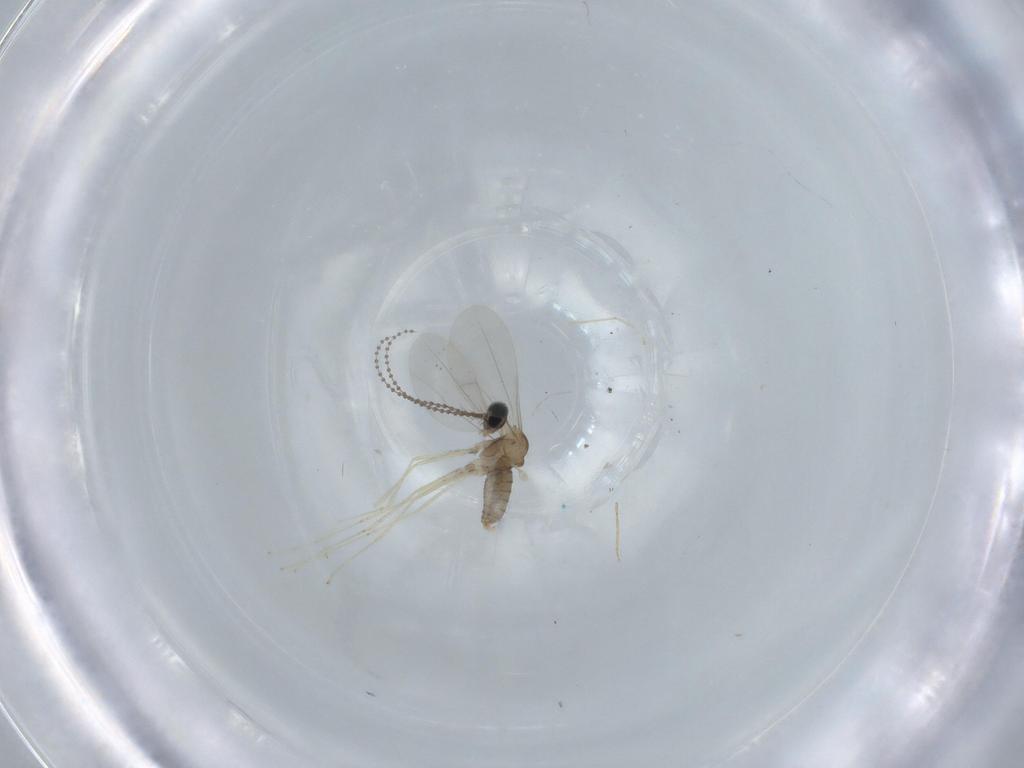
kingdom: Animalia
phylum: Arthropoda
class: Insecta
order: Diptera
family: Cecidomyiidae
